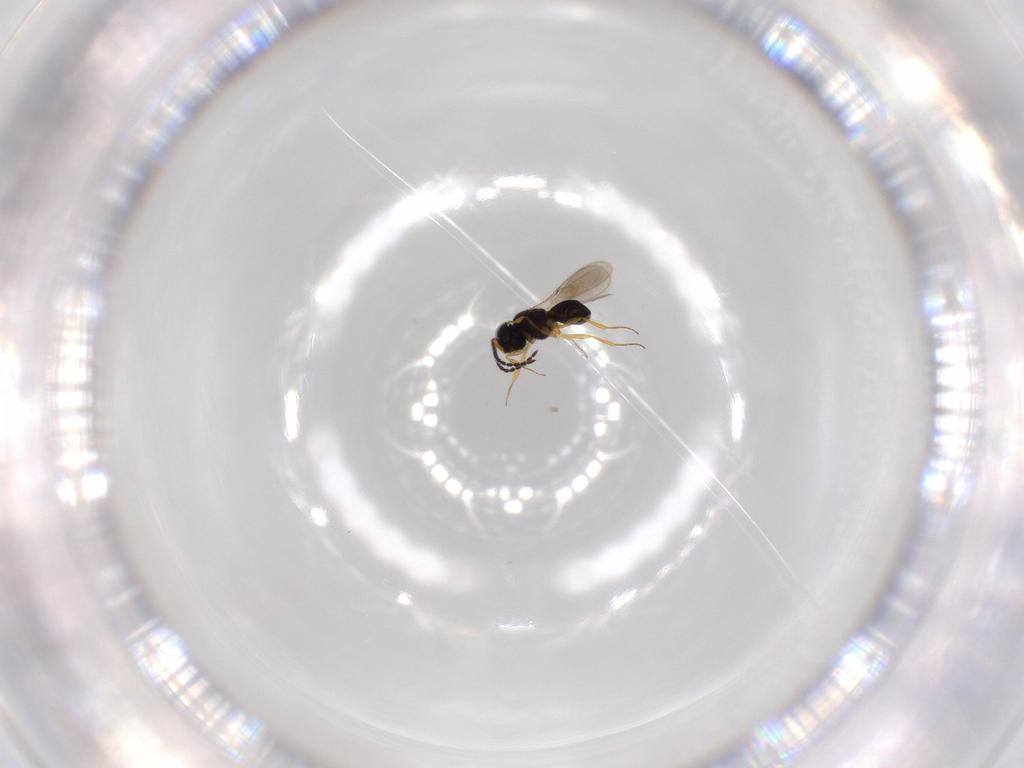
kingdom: Animalia
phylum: Arthropoda
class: Insecta
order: Hymenoptera
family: Scelionidae
